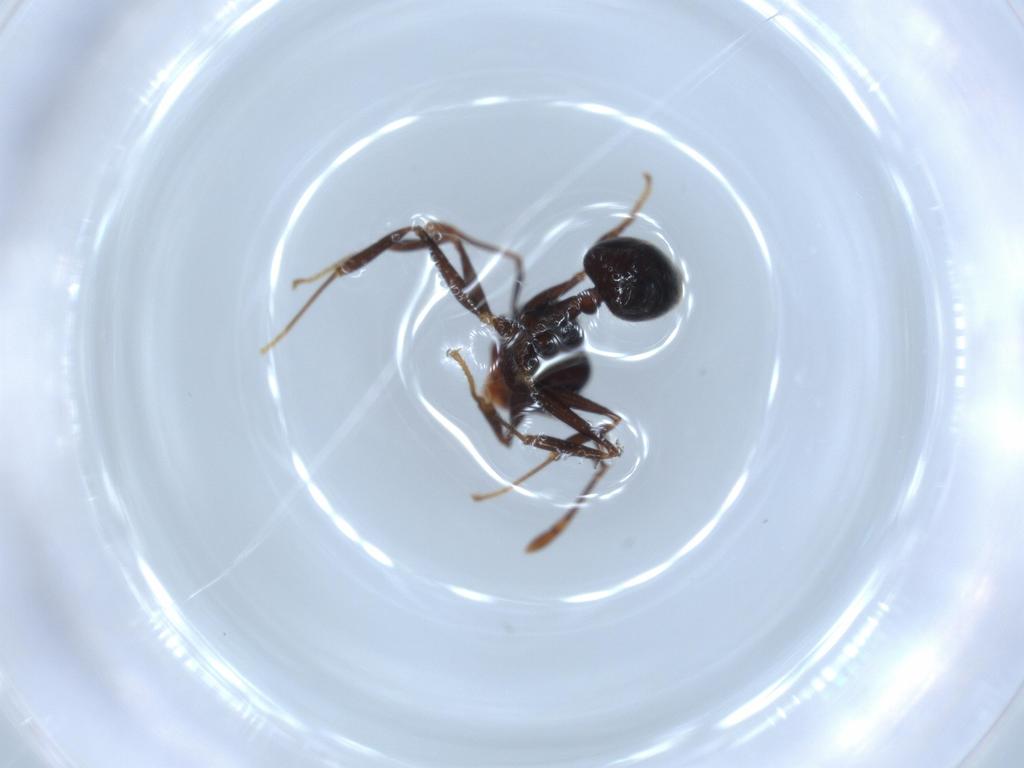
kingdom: Animalia
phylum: Arthropoda
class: Insecta
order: Hymenoptera
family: Formicidae
